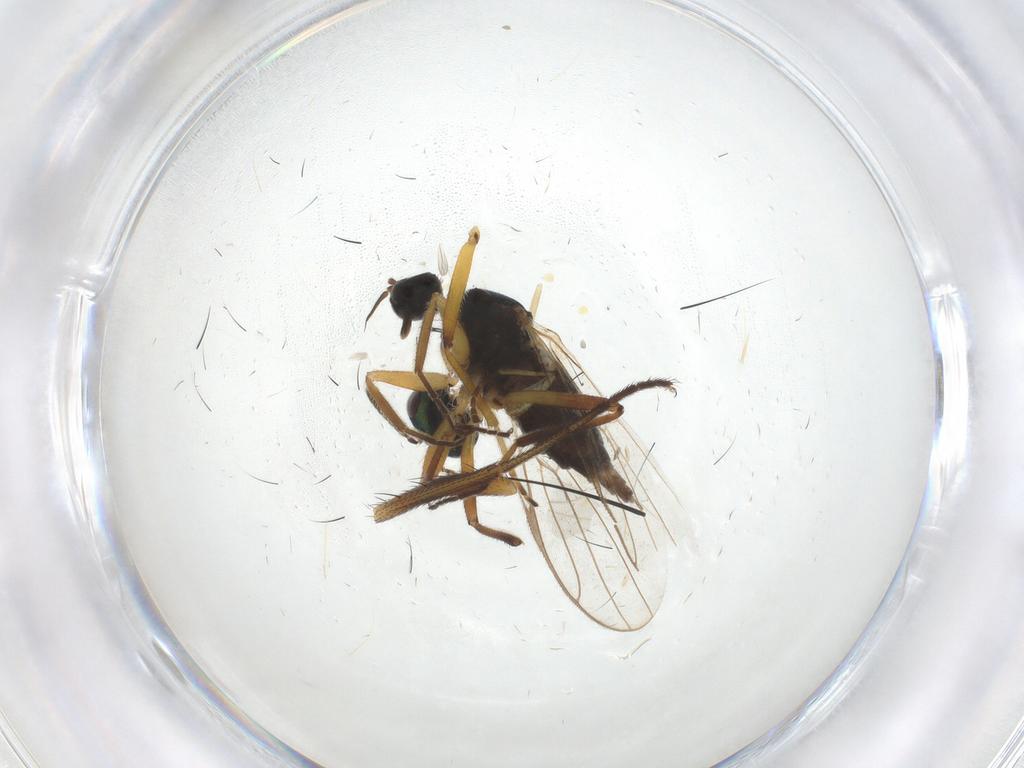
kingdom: Animalia
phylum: Arthropoda
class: Insecta
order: Diptera
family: Hybotidae
